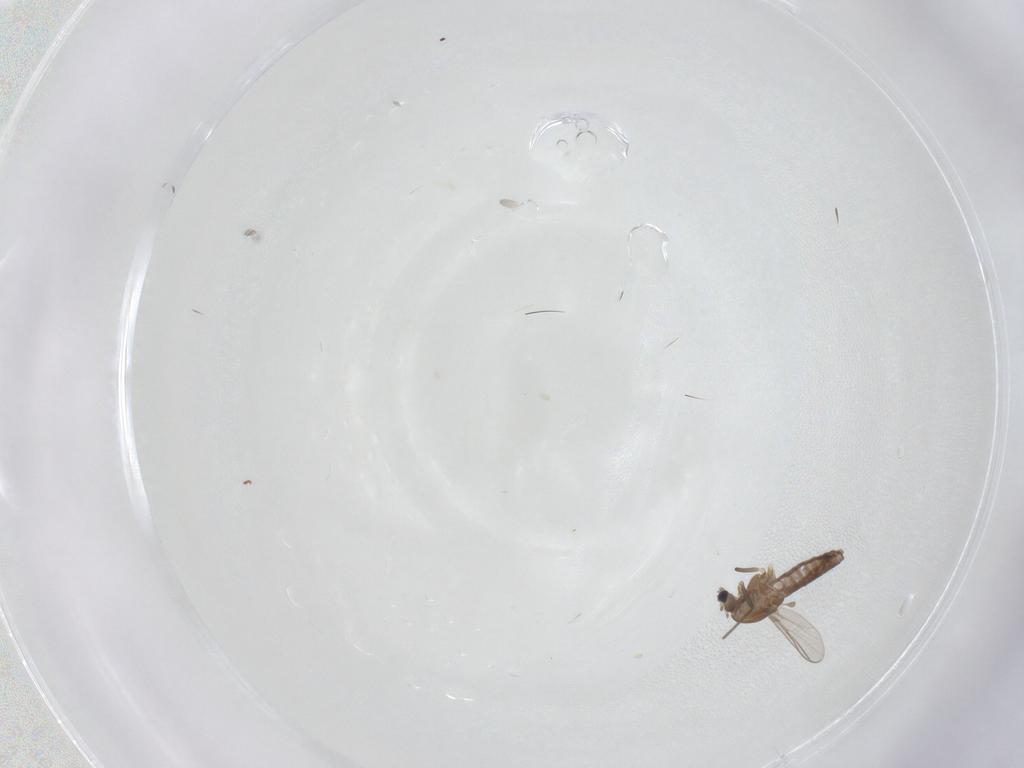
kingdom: Animalia
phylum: Arthropoda
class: Insecta
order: Diptera
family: Chironomidae
